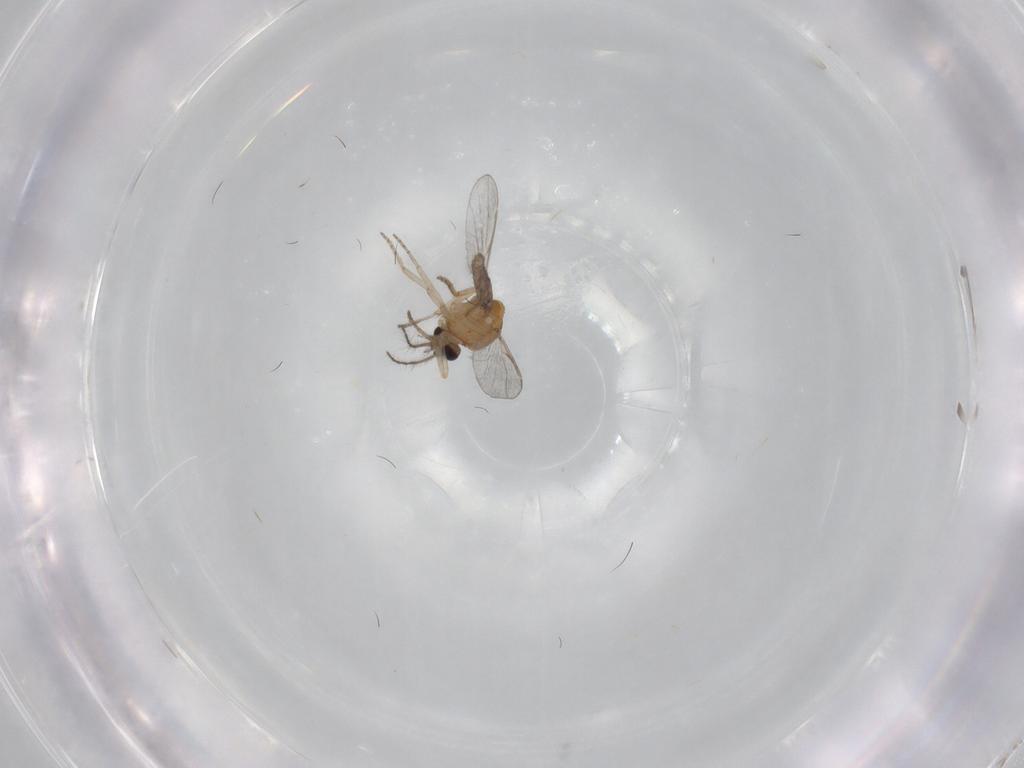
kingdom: Animalia
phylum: Arthropoda
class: Insecta
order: Diptera
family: Ceratopogonidae
